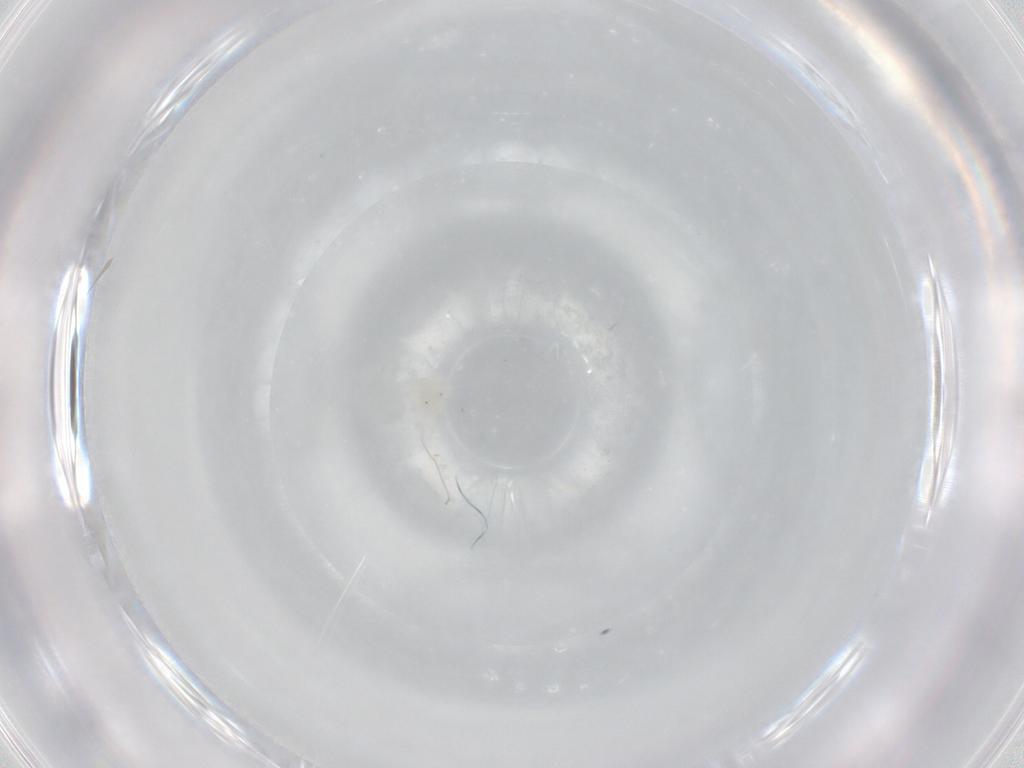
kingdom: Animalia
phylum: Arthropoda
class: Arachnida
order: Trombidiformes
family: Anystidae
